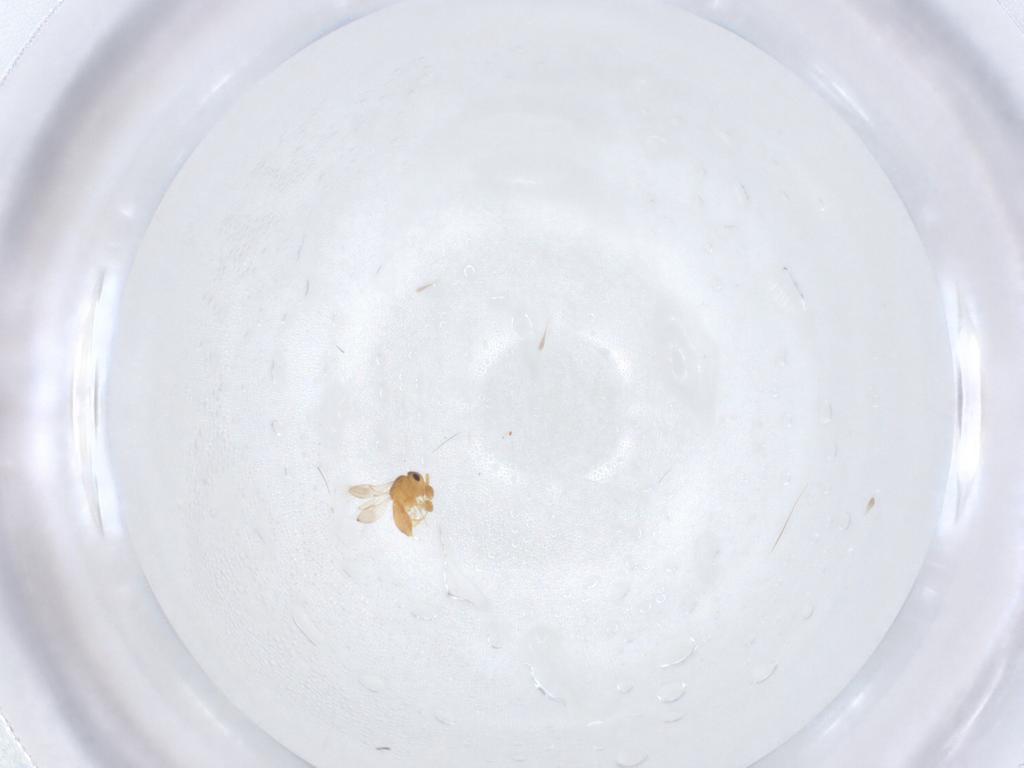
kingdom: Animalia
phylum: Arthropoda
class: Insecta
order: Hymenoptera
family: Scelionidae
